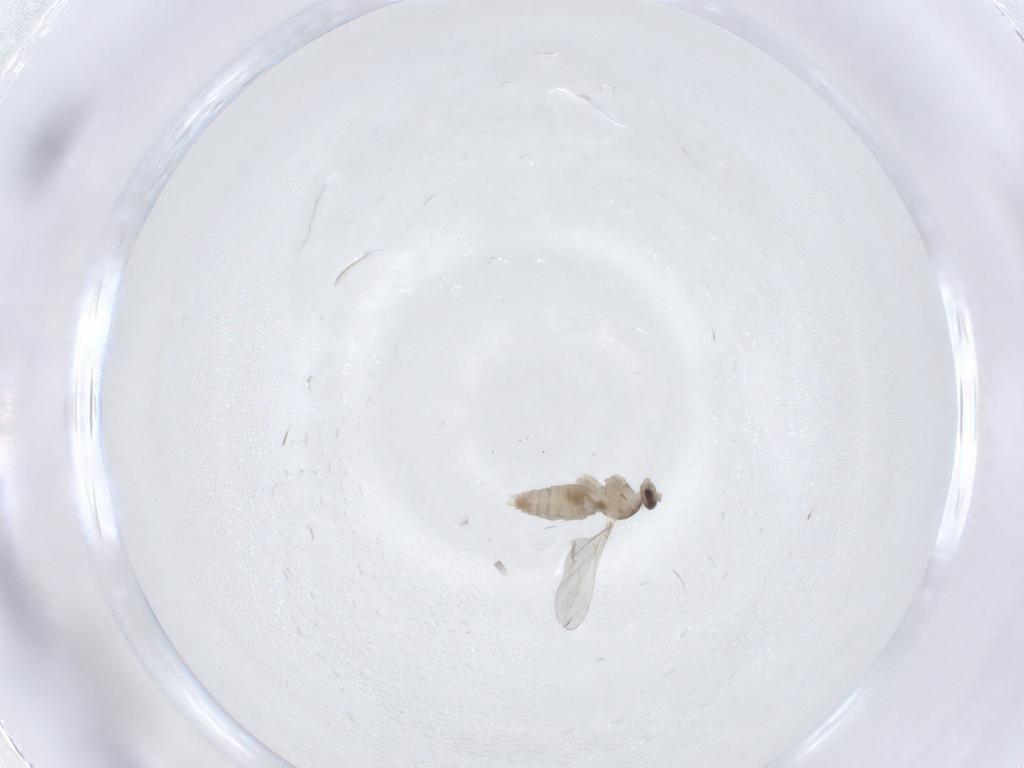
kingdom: Animalia
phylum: Arthropoda
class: Insecta
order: Diptera
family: Cecidomyiidae
